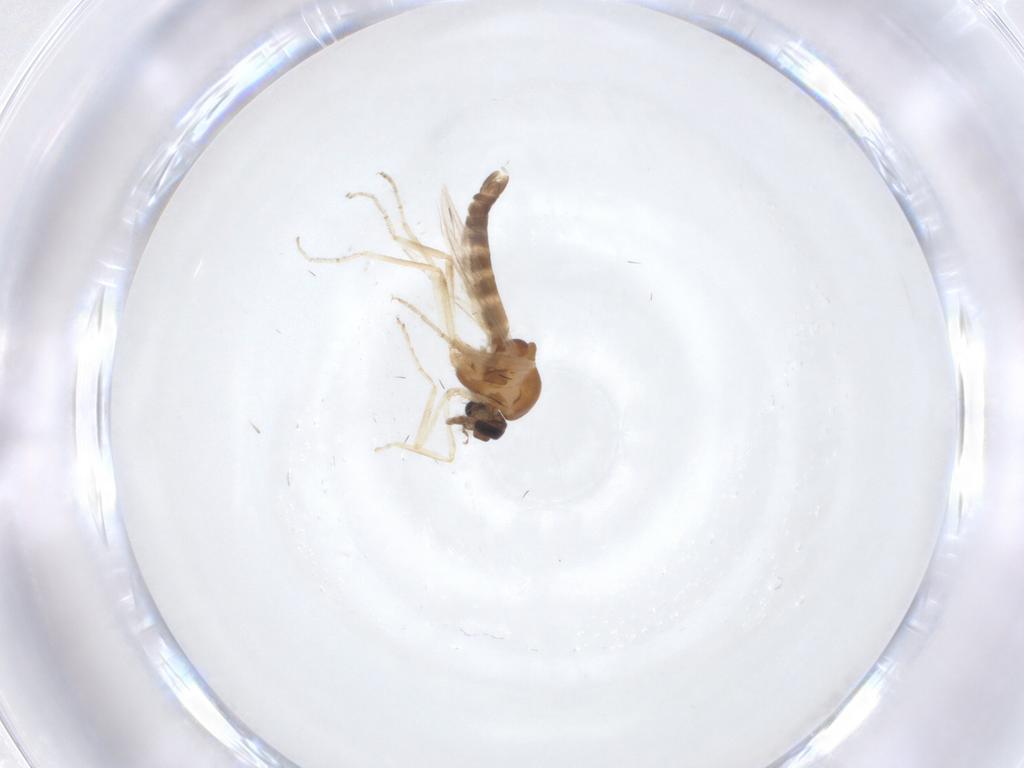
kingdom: Animalia
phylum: Arthropoda
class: Insecta
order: Diptera
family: Ceratopogonidae
